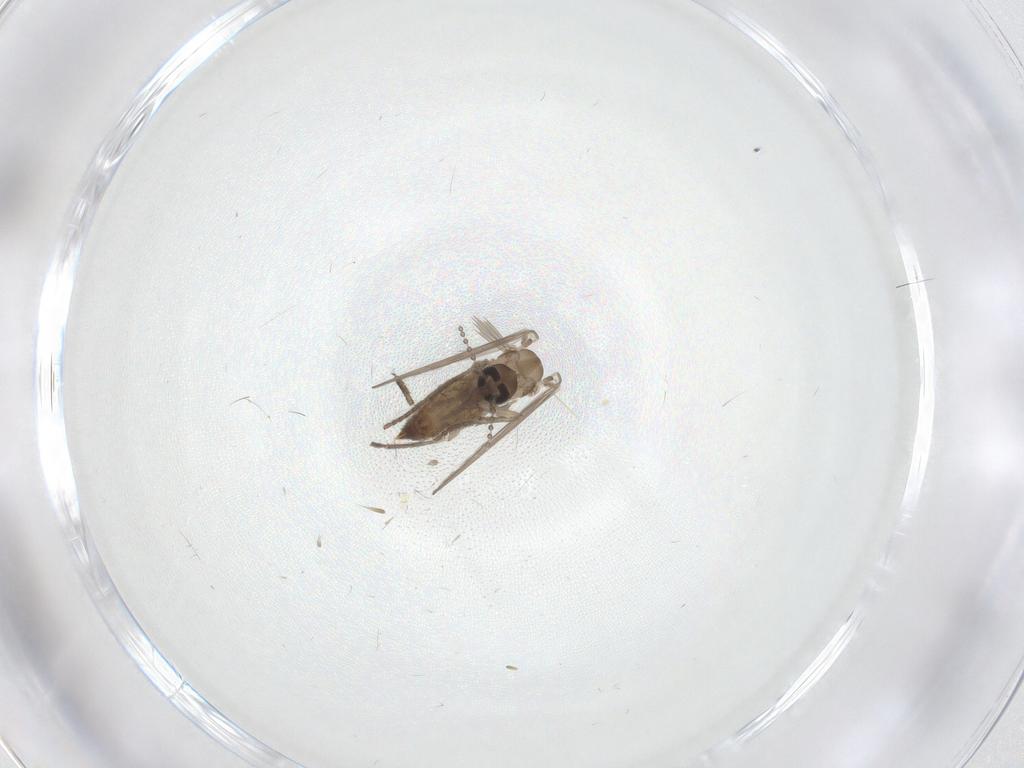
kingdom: Animalia
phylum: Arthropoda
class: Insecta
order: Diptera
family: Psychodidae
